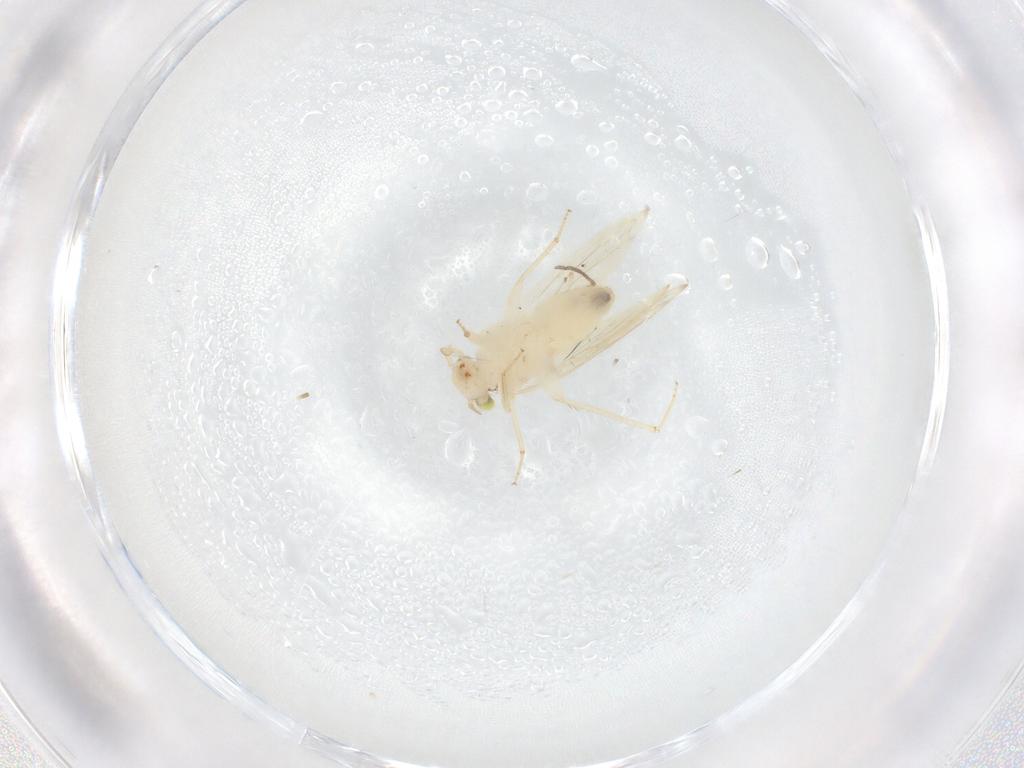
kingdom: Animalia
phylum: Arthropoda
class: Insecta
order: Psocodea
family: Lepidopsocidae
